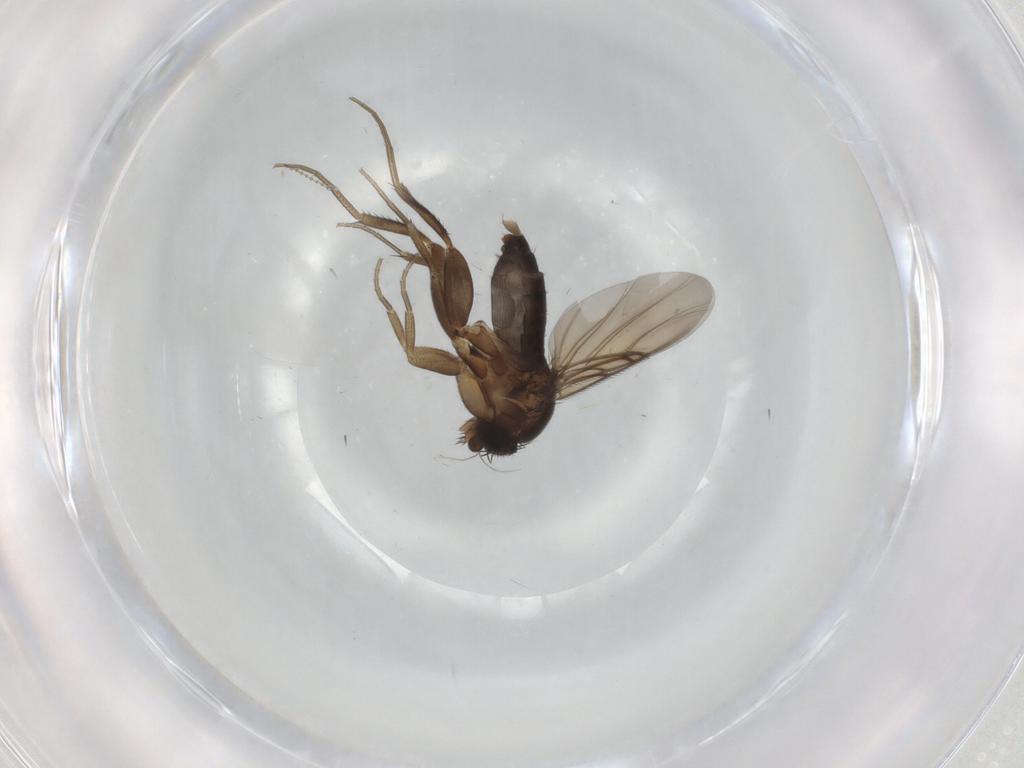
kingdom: Animalia
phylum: Arthropoda
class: Insecta
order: Diptera
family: Phoridae
